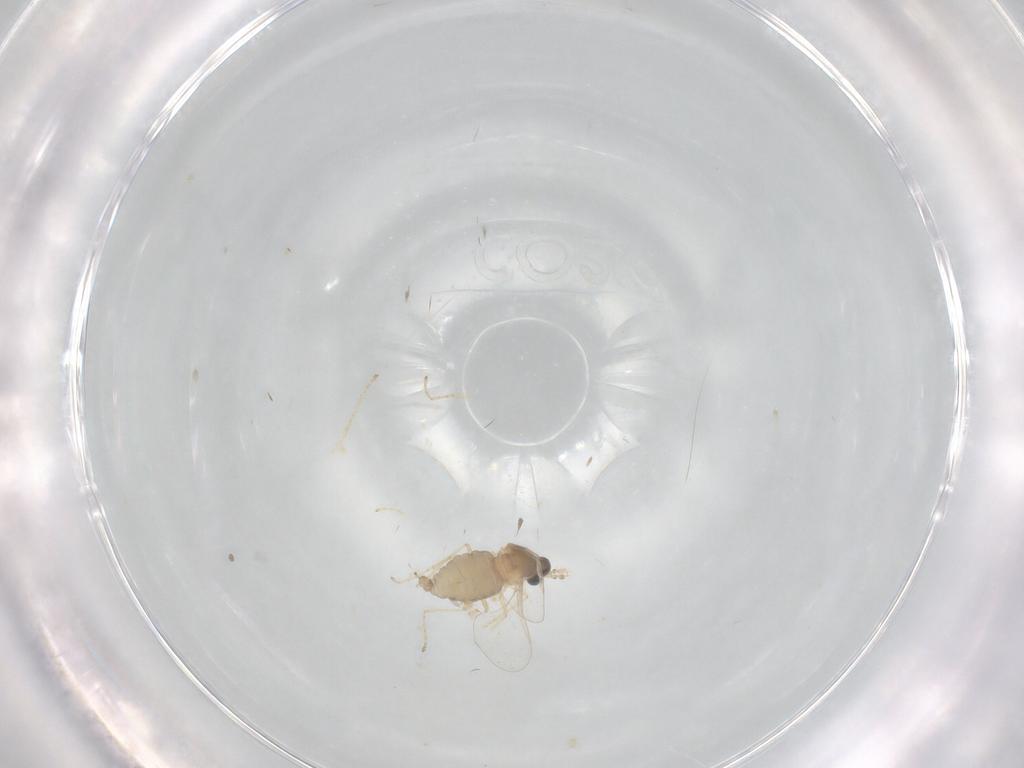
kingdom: Animalia
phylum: Arthropoda
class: Insecta
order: Diptera
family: Cecidomyiidae
